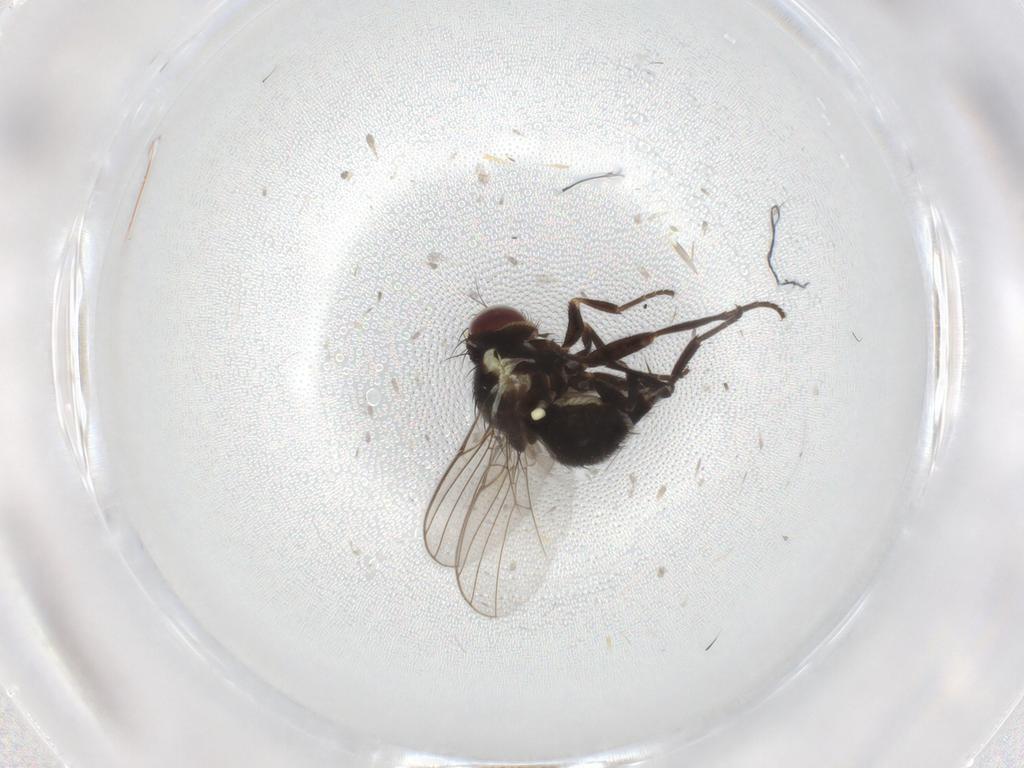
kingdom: Animalia
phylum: Arthropoda
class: Insecta
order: Diptera
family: Agromyzidae
